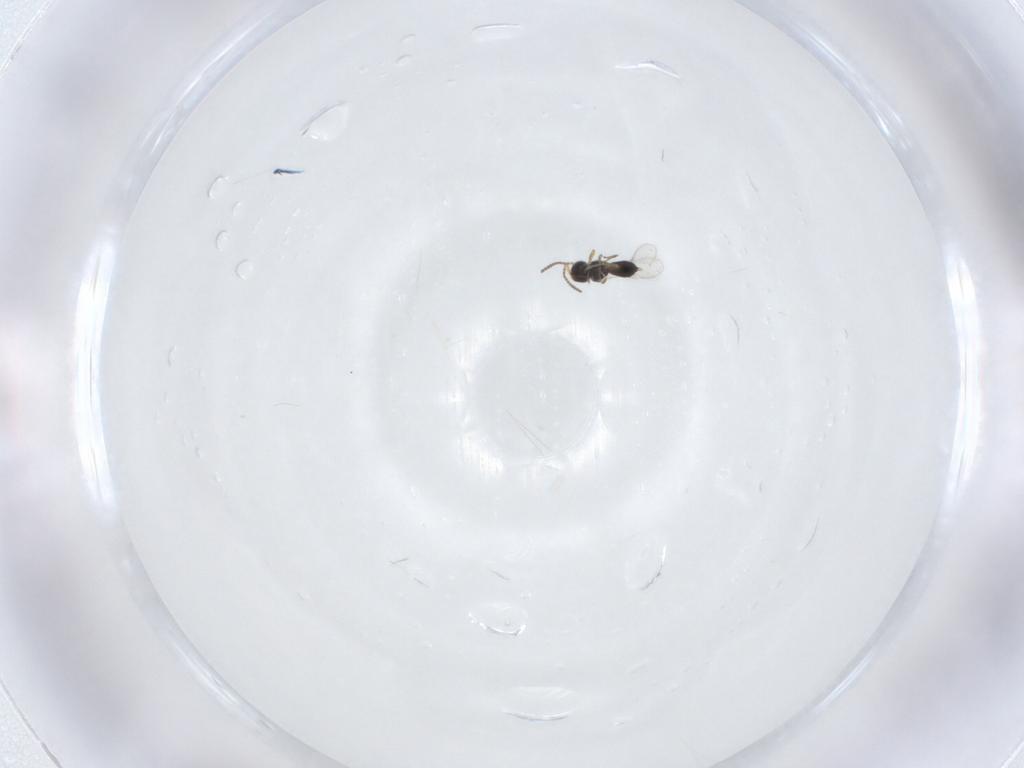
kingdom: Animalia
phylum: Arthropoda
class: Insecta
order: Hymenoptera
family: Scelionidae
